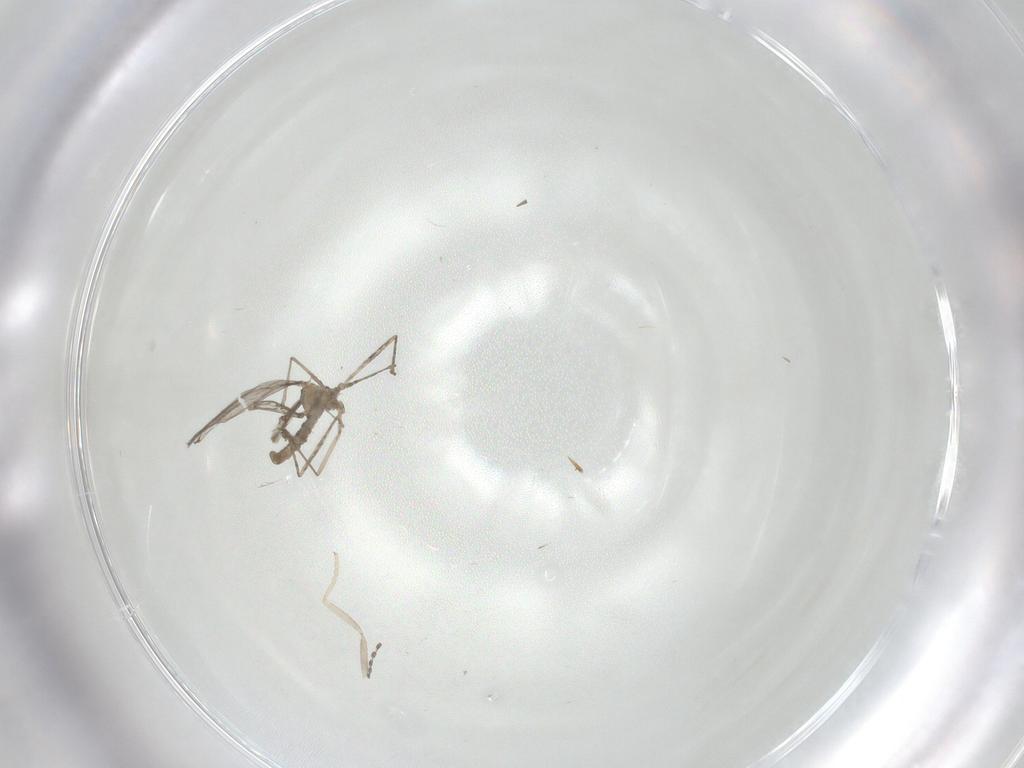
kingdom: Animalia
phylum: Arthropoda
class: Insecta
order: Diptera
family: Cecidomyiidae
